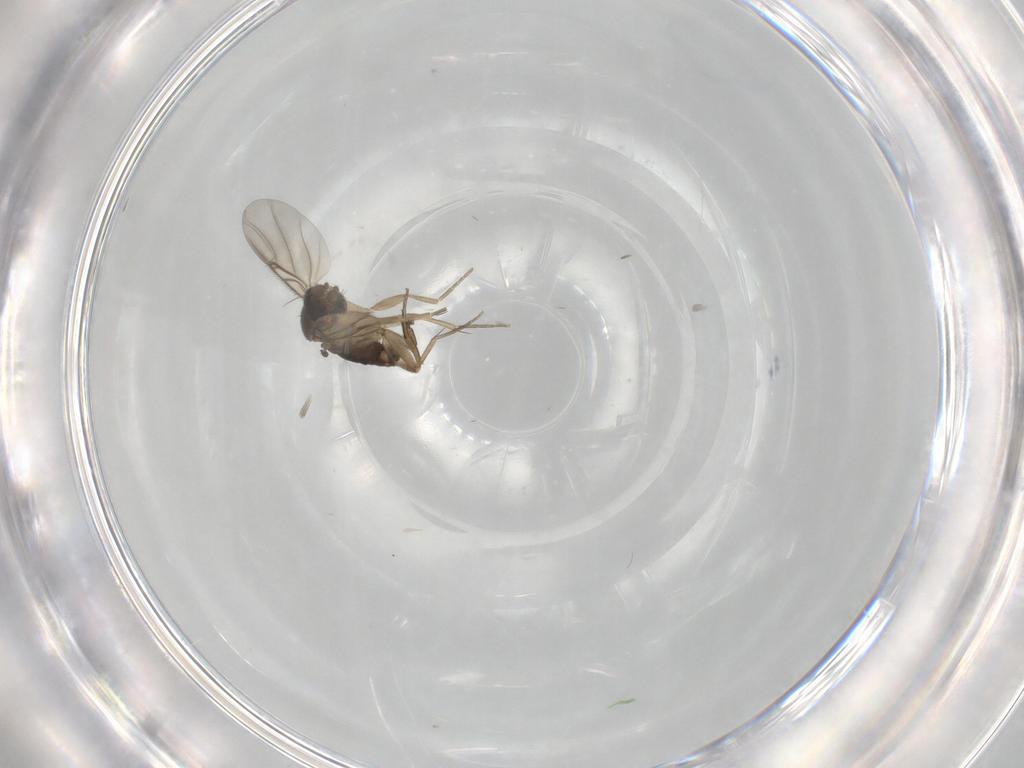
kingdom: Animalia
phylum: Arthropoda
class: Insecta
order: Diptera
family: Chironomidae
